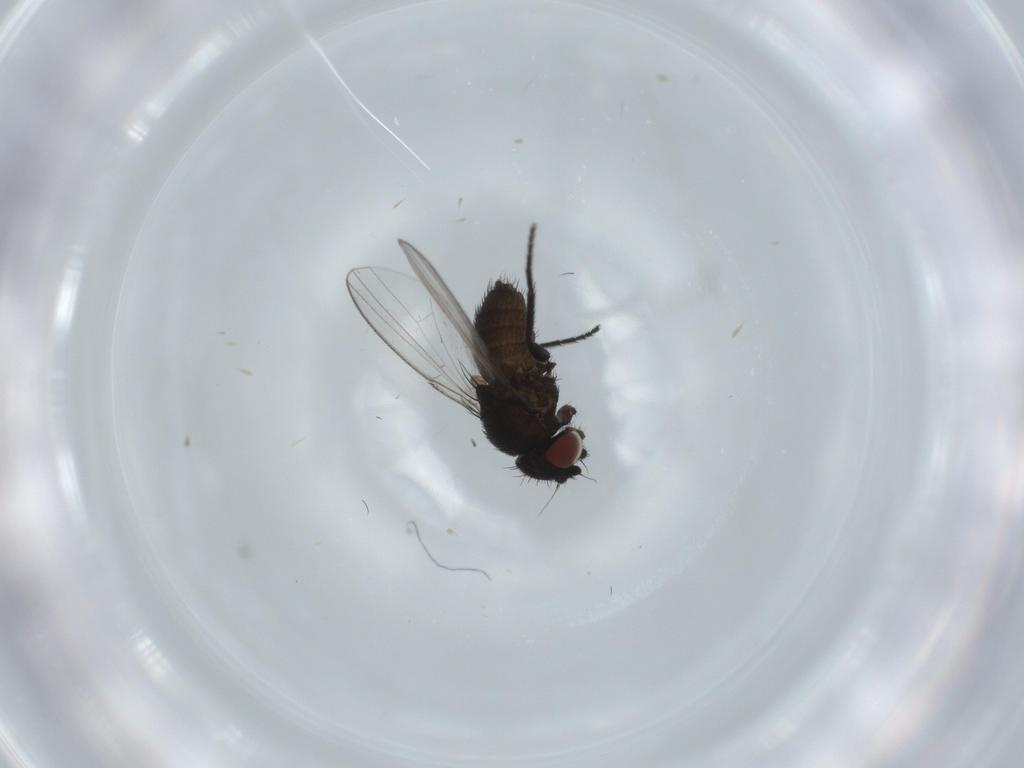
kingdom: Animalia
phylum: Arthropoda
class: Insecta
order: Diptera
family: Milichiidae
